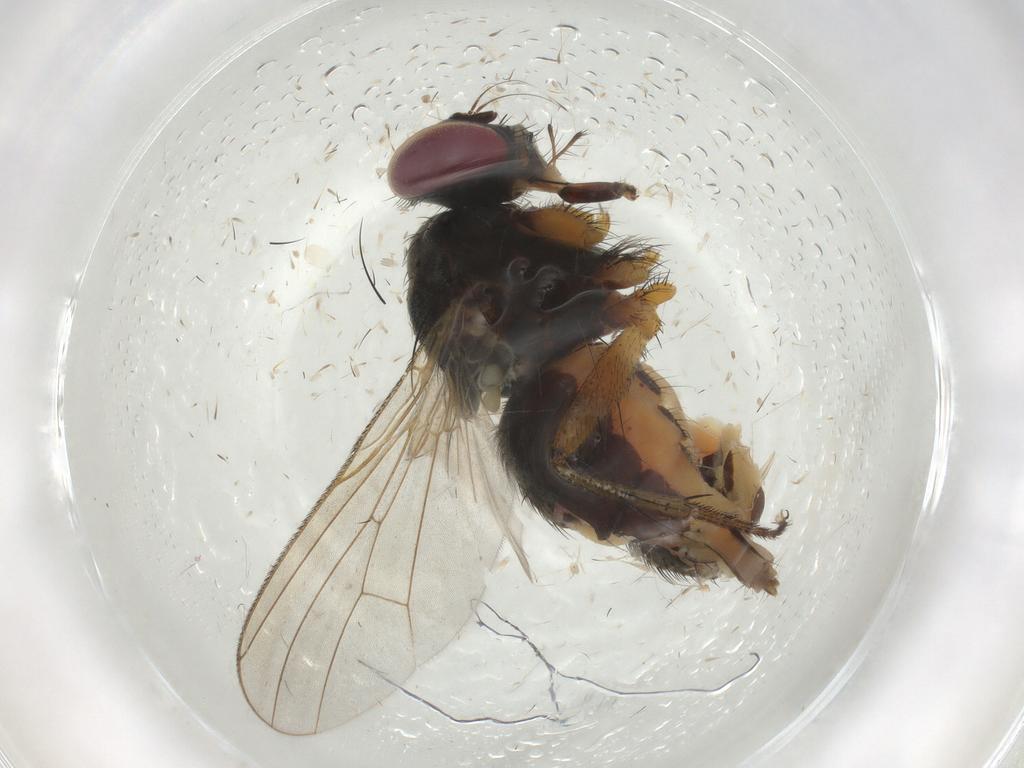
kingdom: Animalia
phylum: Arthropoda
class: Insecta
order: Diptera
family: Muscidae
